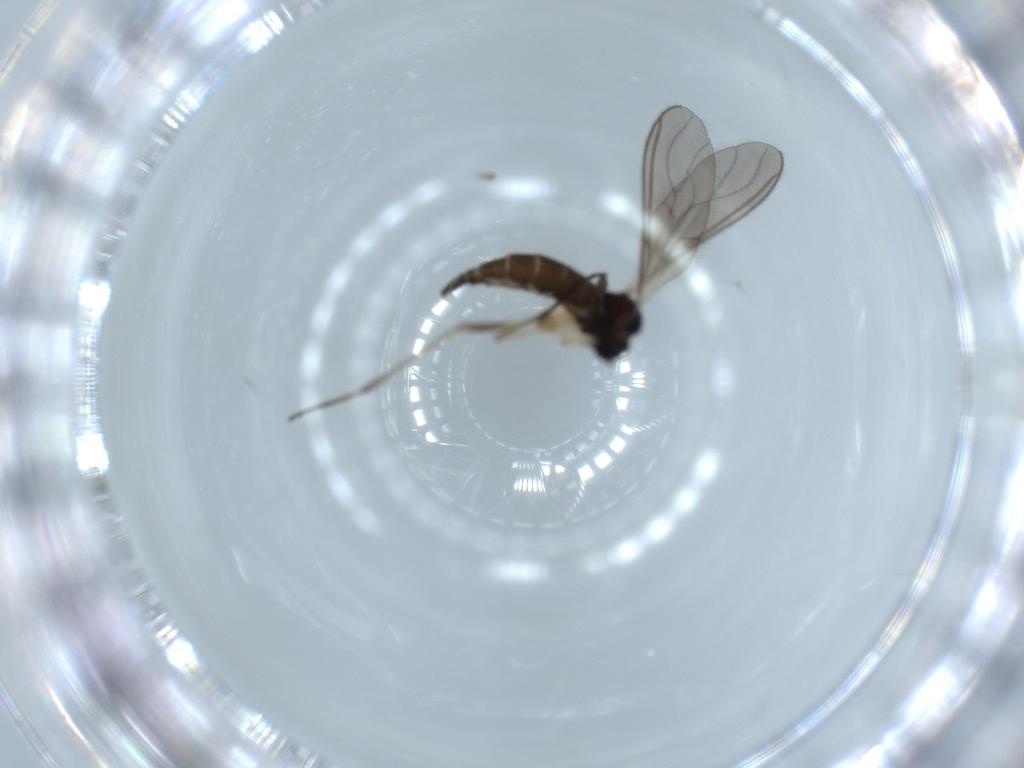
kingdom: Animalia
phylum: Arthropoda
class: Insecta
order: Diptera
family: Sciaridae
